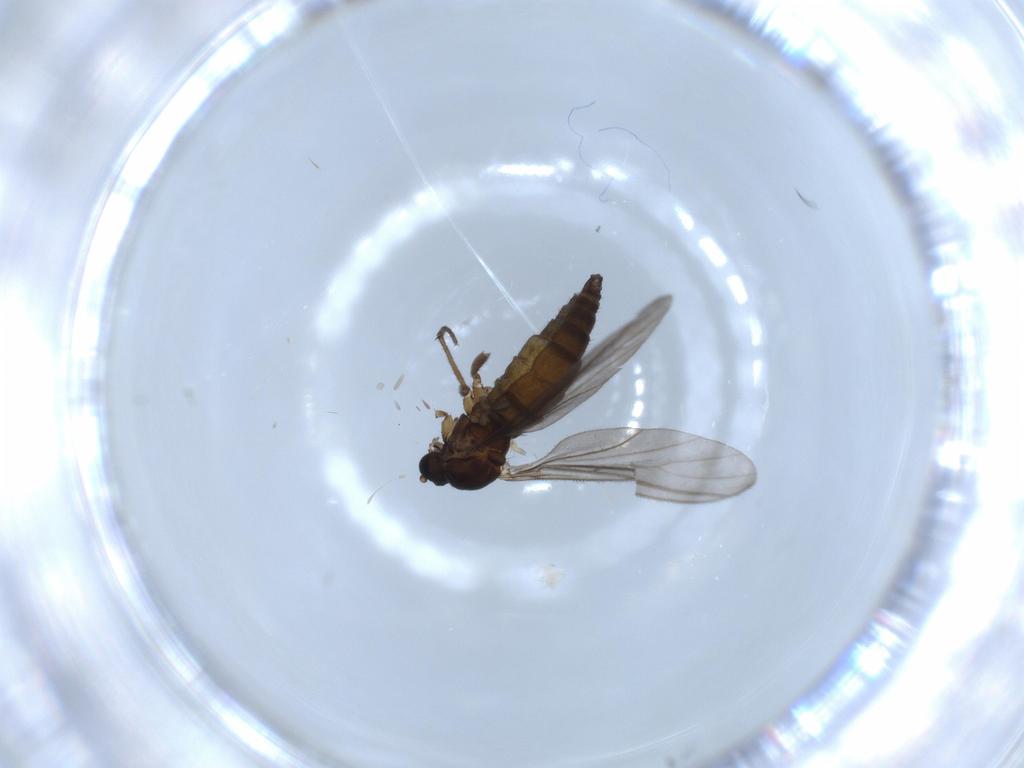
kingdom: Animalia
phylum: Arthropoda
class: Insecta
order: Diptera
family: Sciaridae
